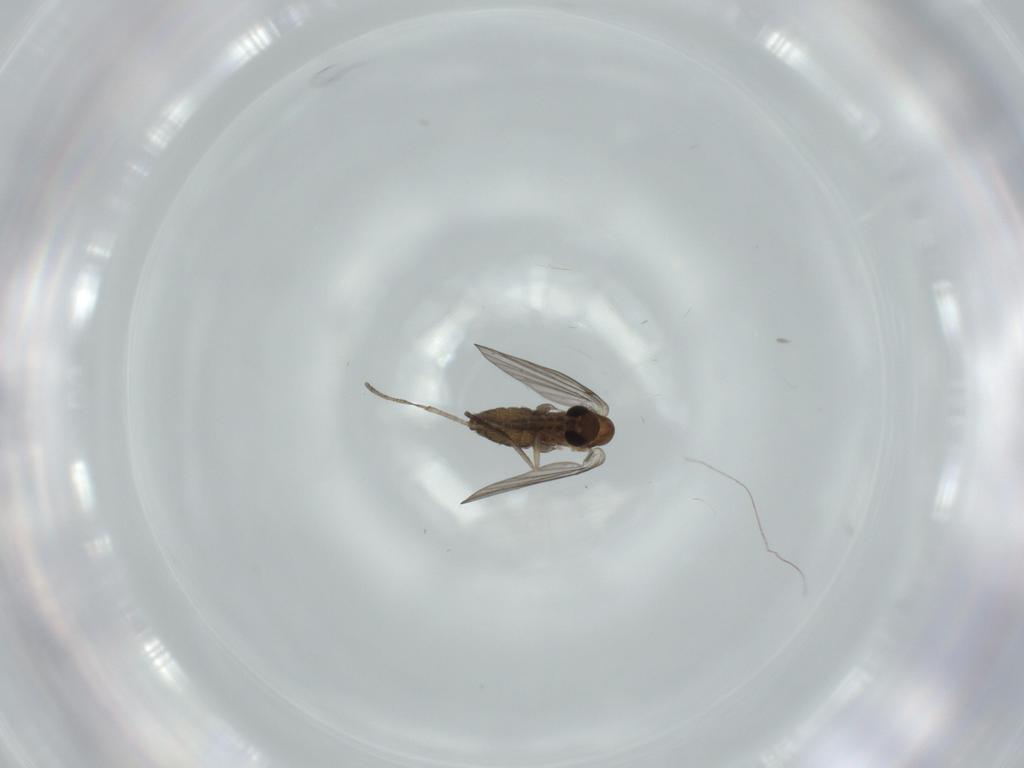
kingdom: Animalia
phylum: Arthropoda
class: Insecta
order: Diptera
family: Psychodidae
